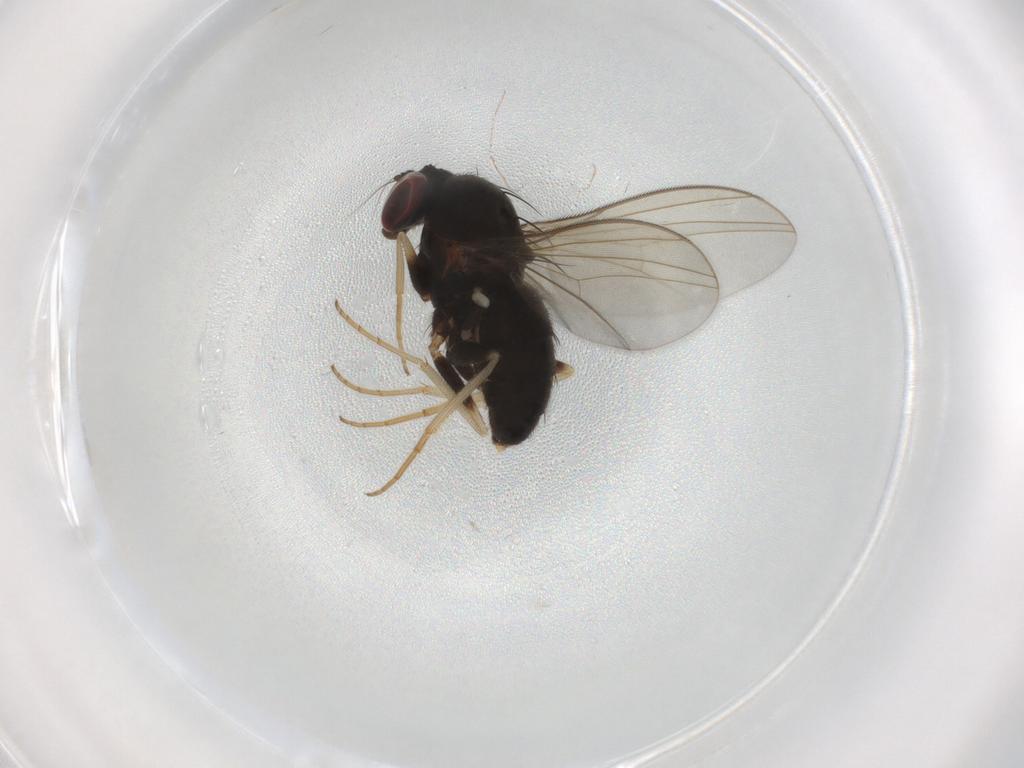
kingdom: Animalia
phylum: Arthropoda
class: Insecta
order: Diptera
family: Dolichopodidae
